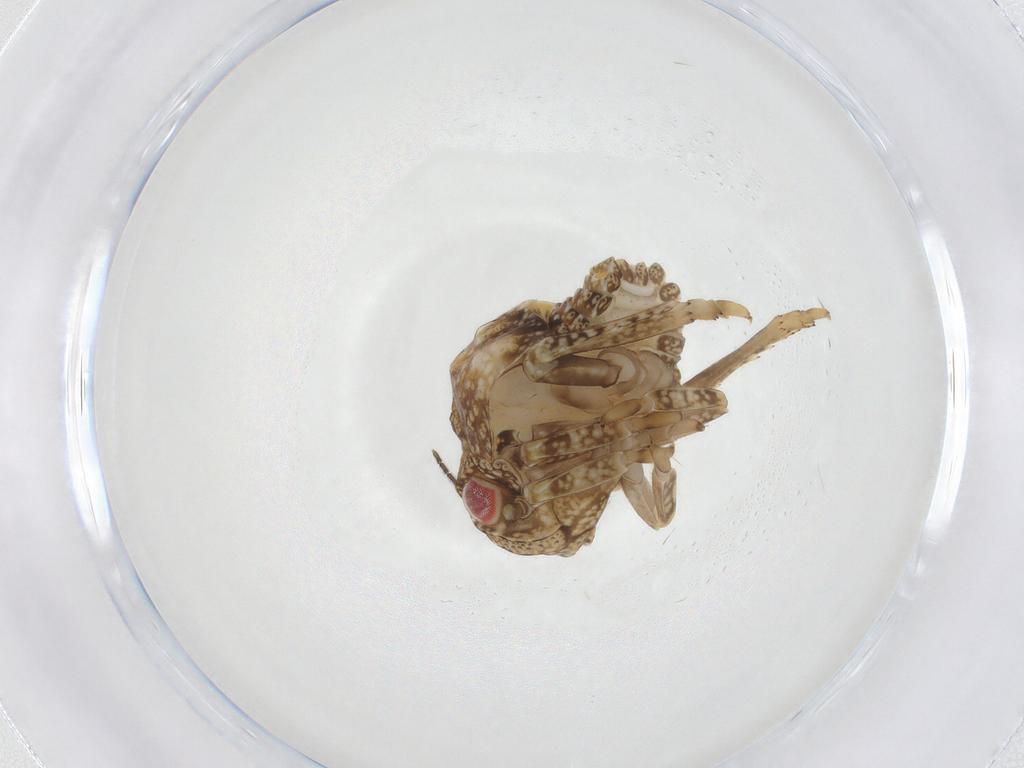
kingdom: Animalia
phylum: Arthropoda
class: Insecta
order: Hemiptera
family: Acanaloniidae
